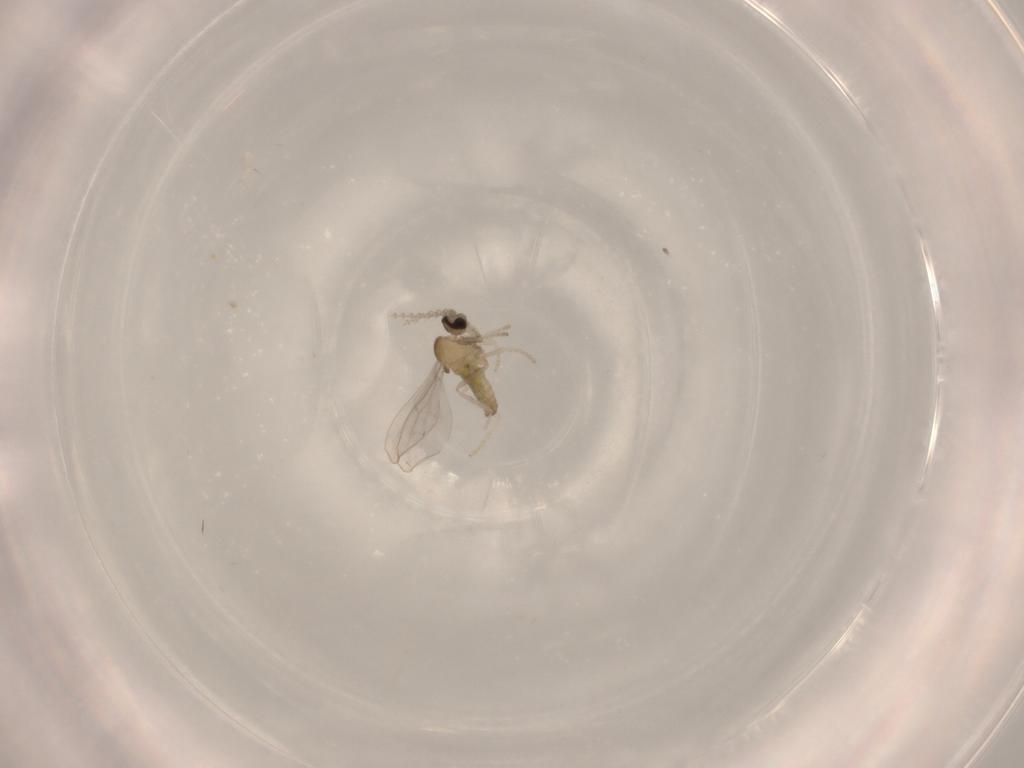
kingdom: Animalia
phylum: Arthropoda
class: Insecta
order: Diptera
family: Cecidomyiidae
